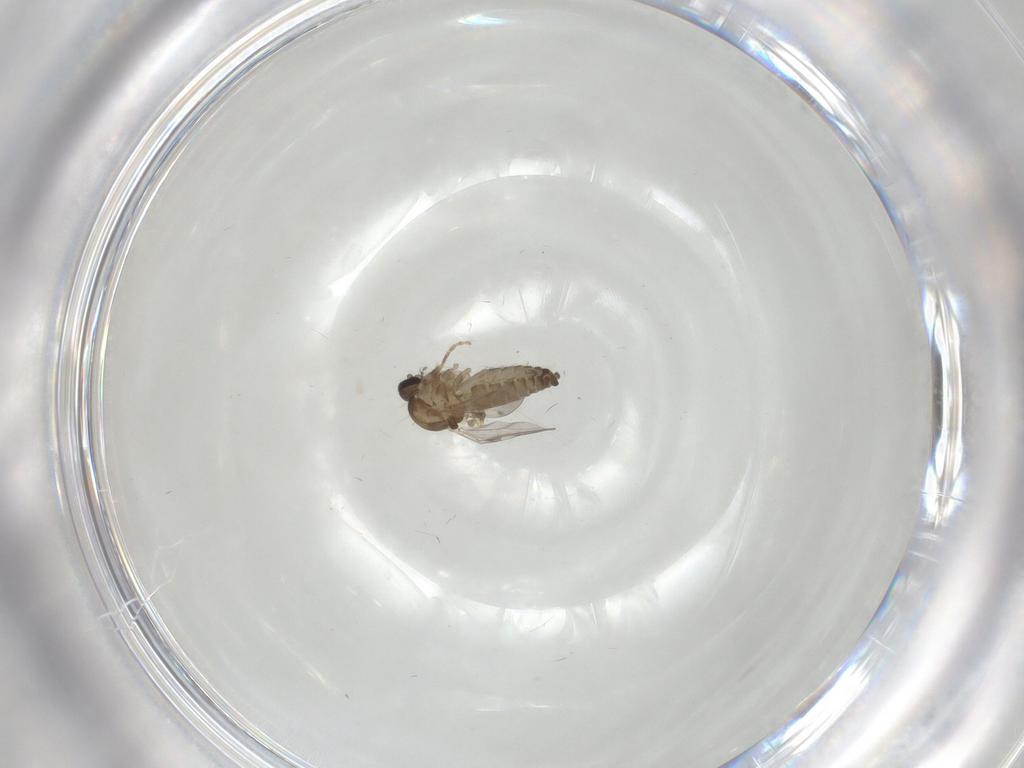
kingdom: Animalia
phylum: Arthropoda
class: Insecta
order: Diptera
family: Ceratopogonidae
